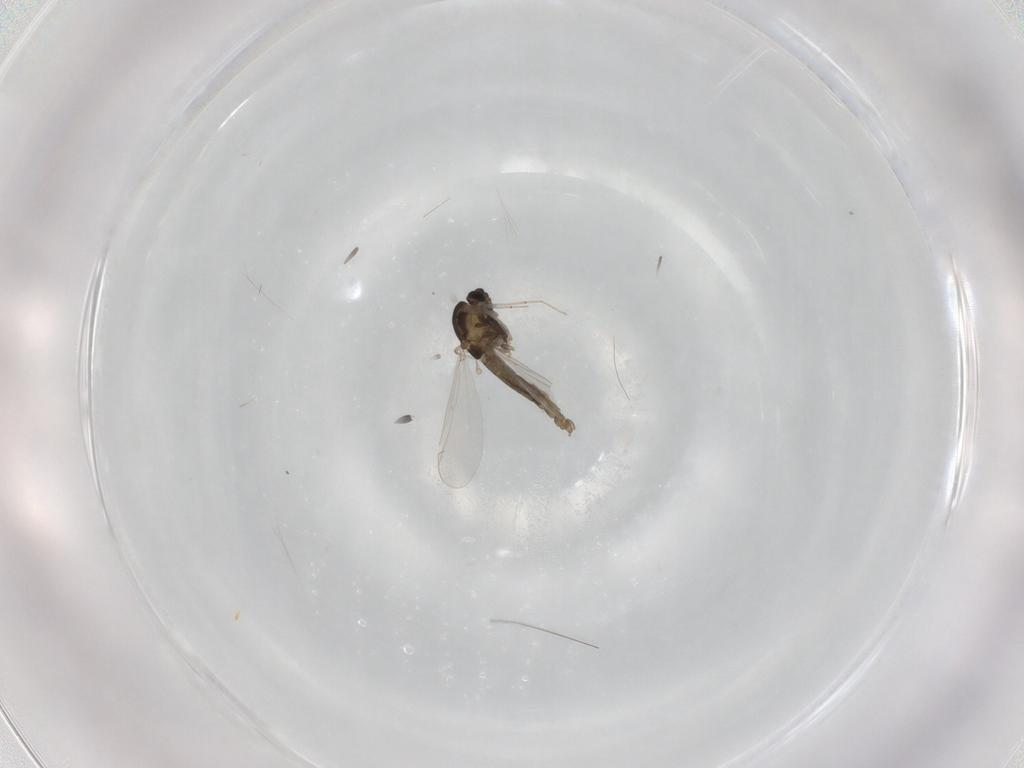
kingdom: Animalia
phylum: Arthropoda
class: Insecta
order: Diptera
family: Chironomidae
